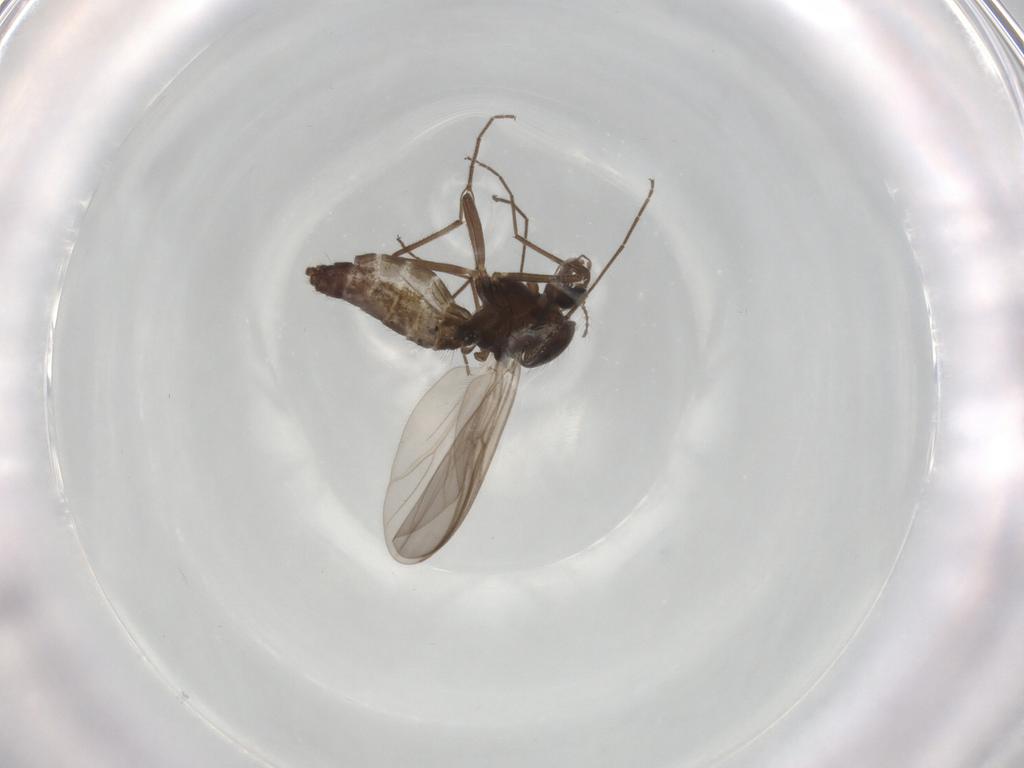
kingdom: Animalia
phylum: Arthropoda
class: Insecta
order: Diptera
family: Chironomidae
